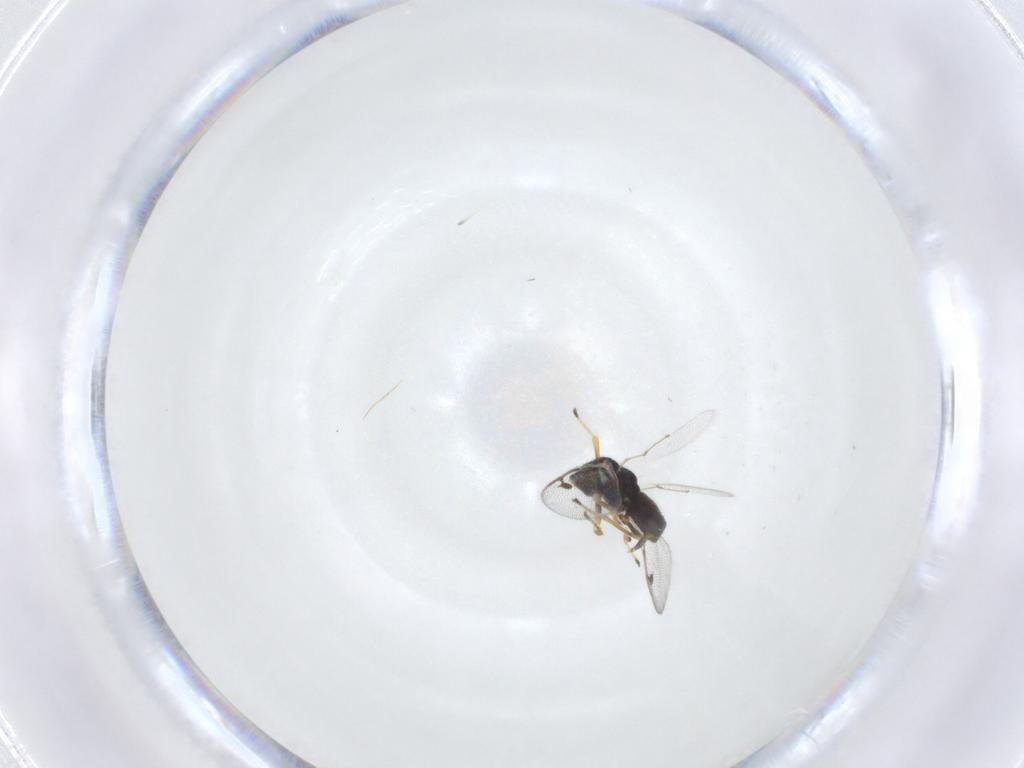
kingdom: Animalia
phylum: Arthropoda
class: Insecta
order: Hymenoptera
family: Pirenidae
